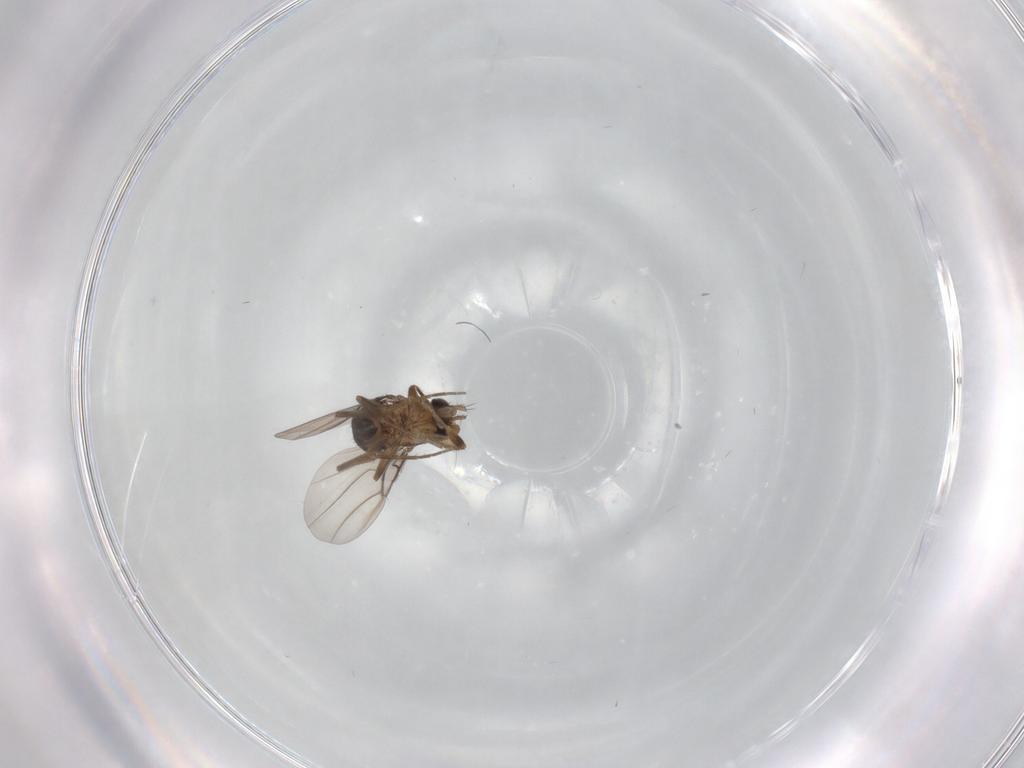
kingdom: Animalia
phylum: Arthropoda
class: Insecta
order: Diptera
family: Phoridae
